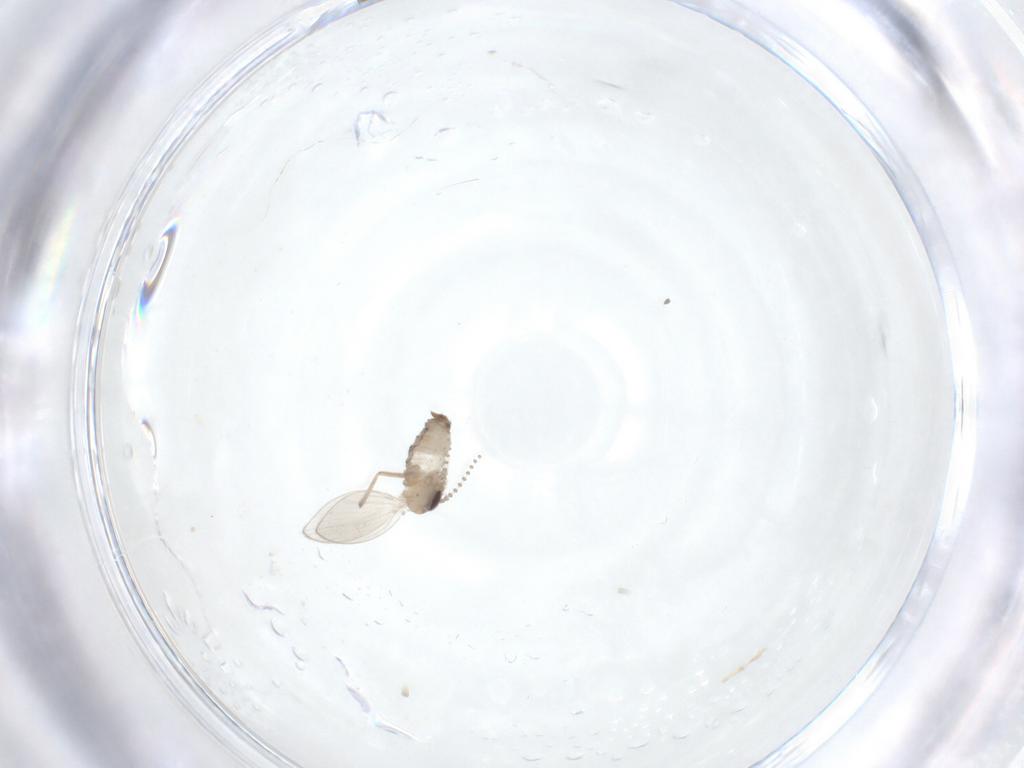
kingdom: Animalia
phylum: Arthropoda
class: Insecta
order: Diptera
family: Chironomidae
